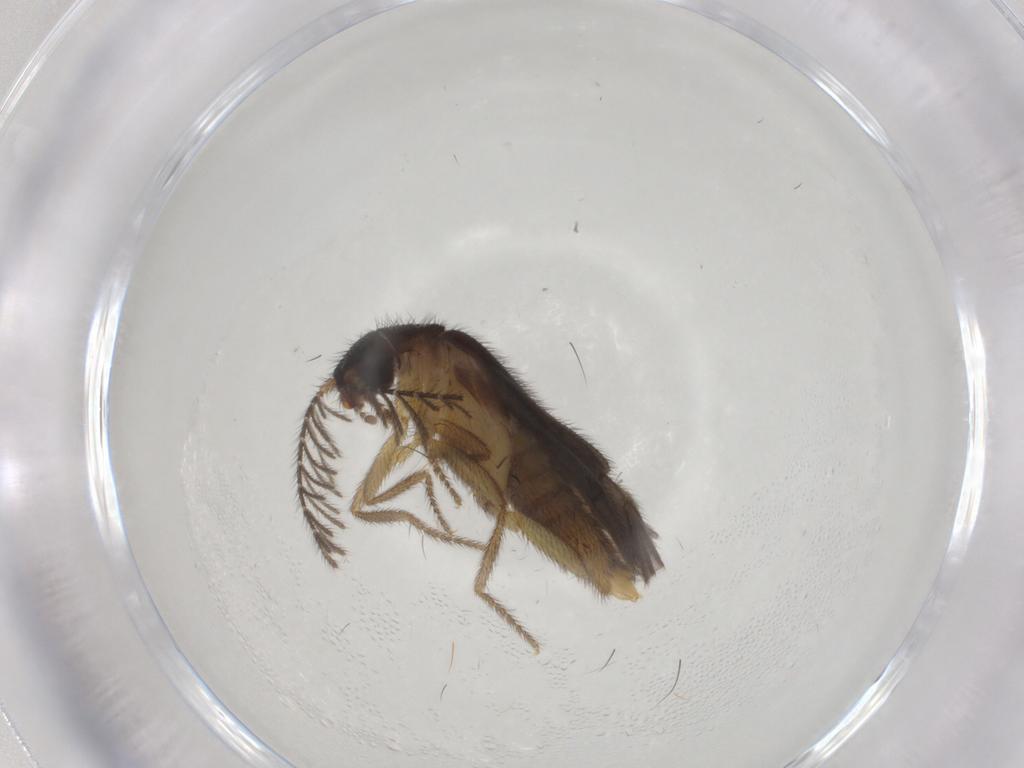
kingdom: Animalia
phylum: Arthropoda
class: Insecta
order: Diptera
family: Tabanidae
